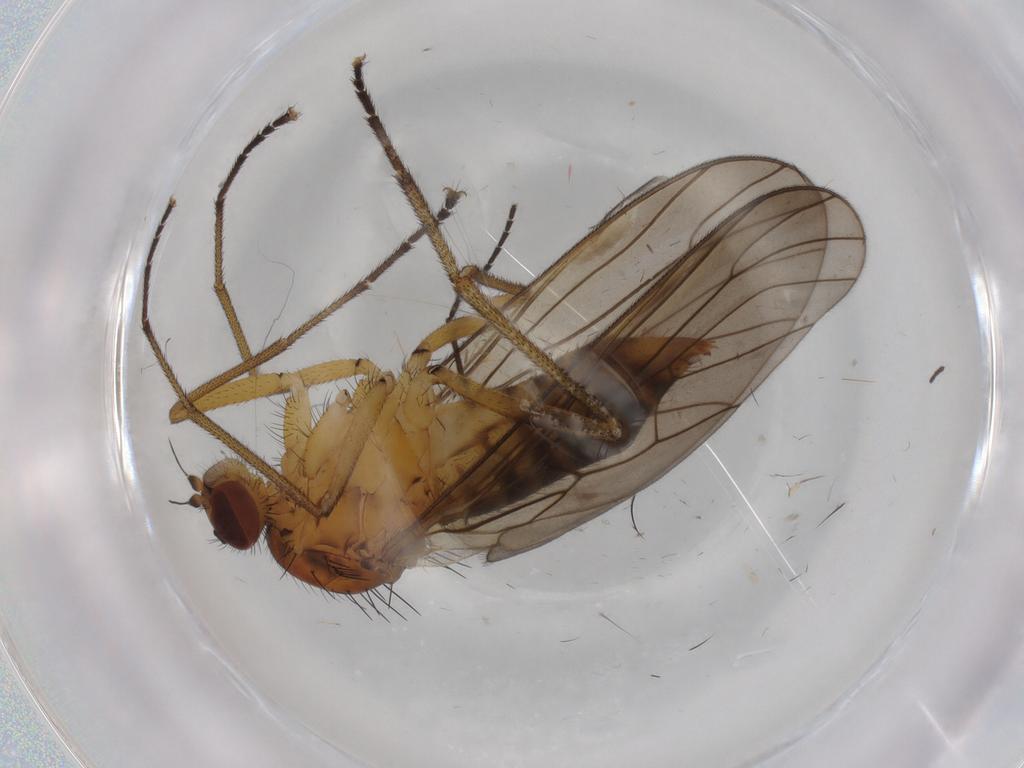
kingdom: Animalia
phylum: Arthropoda
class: Insecta
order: Diptera
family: Brachystomatidae
